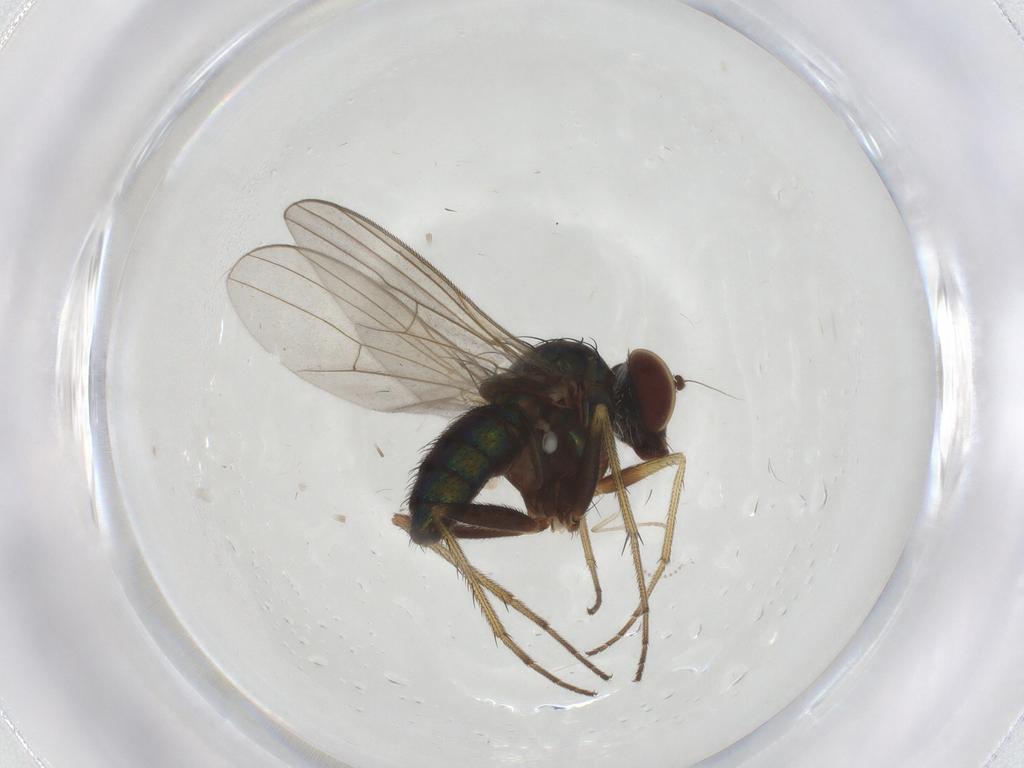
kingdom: Animalia
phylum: Arthropoda
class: Insecta
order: Diptera
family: Dolichopodidae
